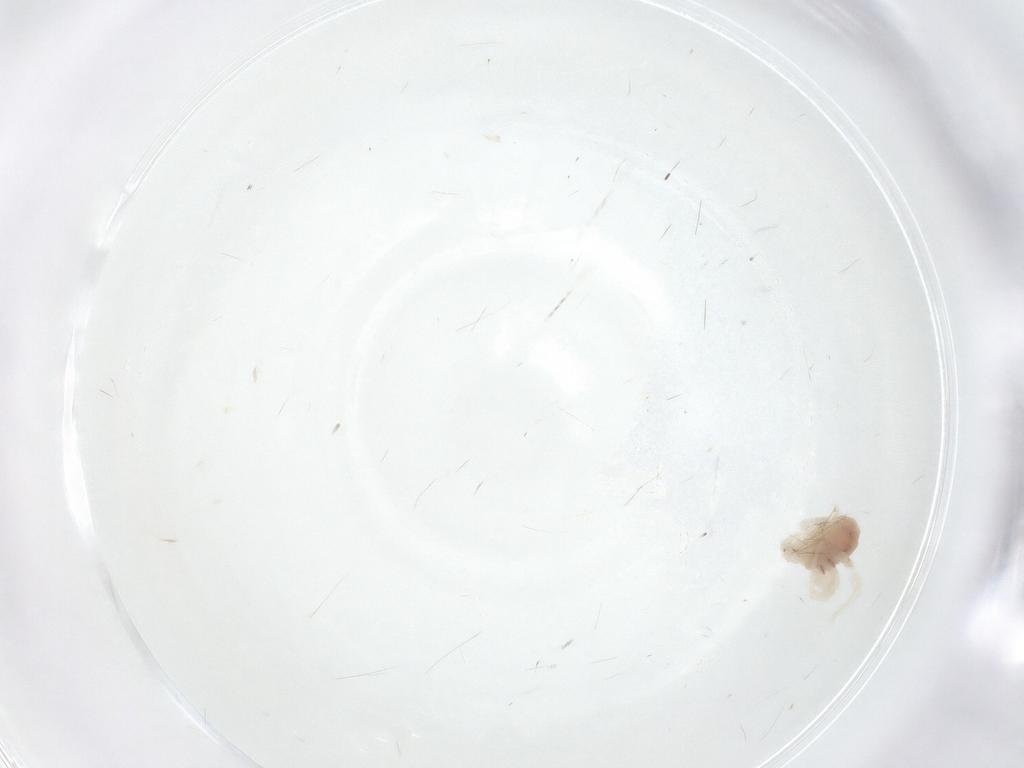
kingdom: Animalia
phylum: Arthropoda
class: Arachnida
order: Trombidiformes
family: Anystidae
